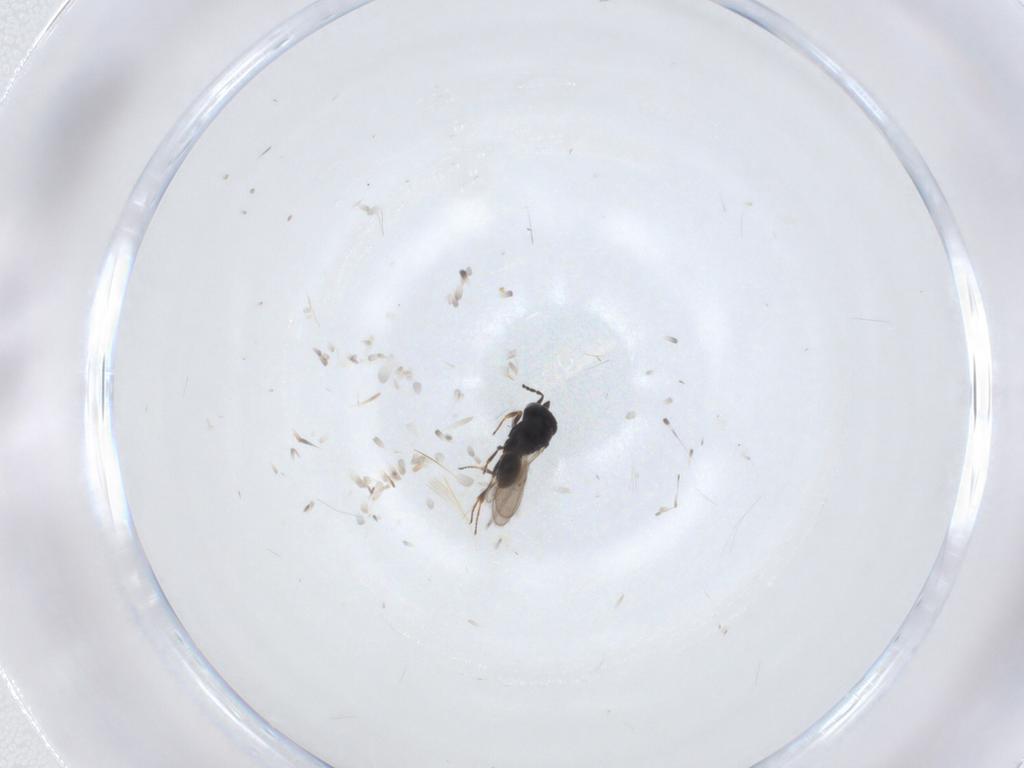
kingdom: Animalia
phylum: Arthropoda
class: Insecta
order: Hymenoptera
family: Scelionidae
